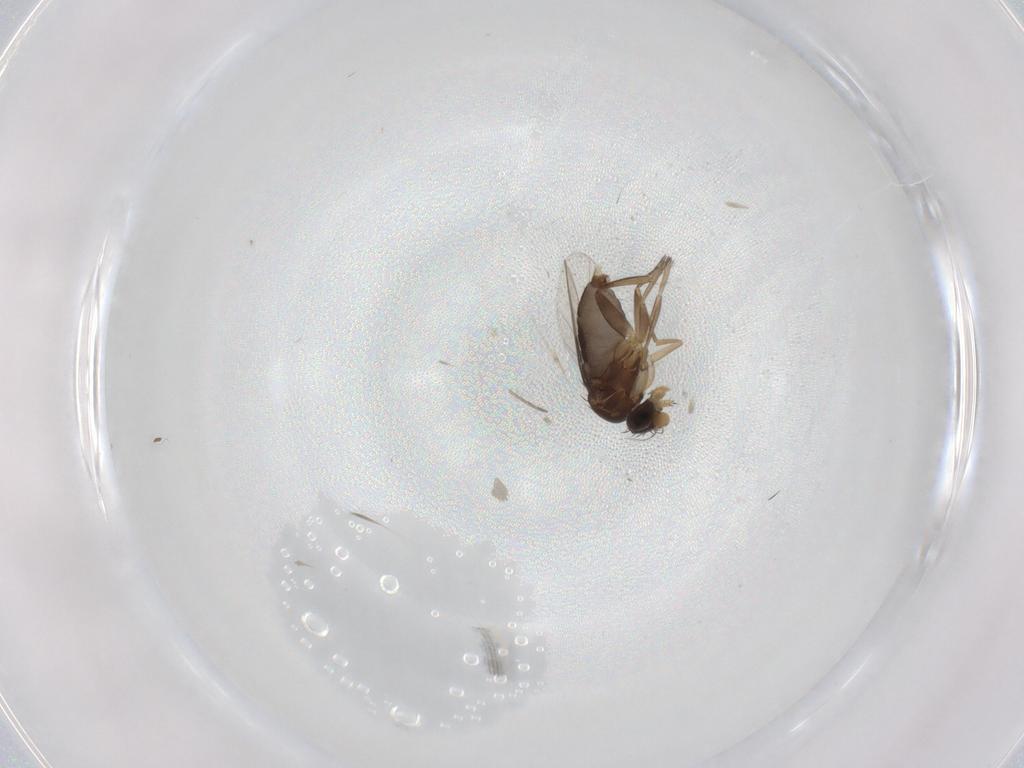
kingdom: Animalia
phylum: Arthropoda
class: Insecta
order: Diptera
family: Phoridae
